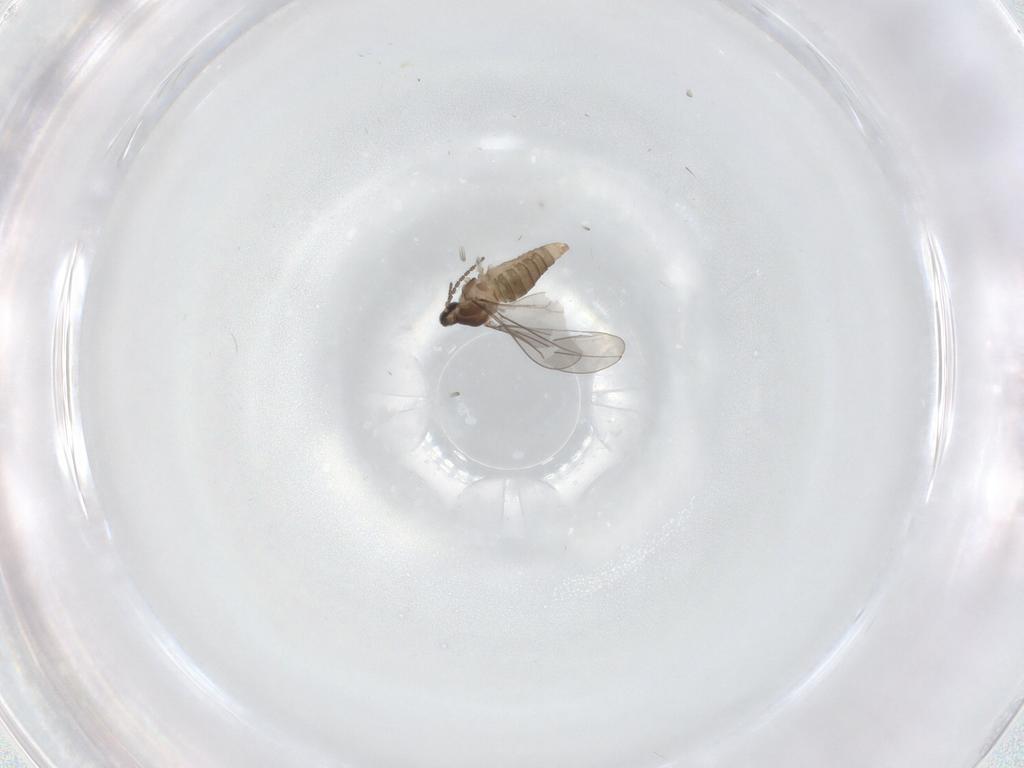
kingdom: Animalia
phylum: Arthropoda
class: Insecta
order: Diptera
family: Cecidomyiidae
